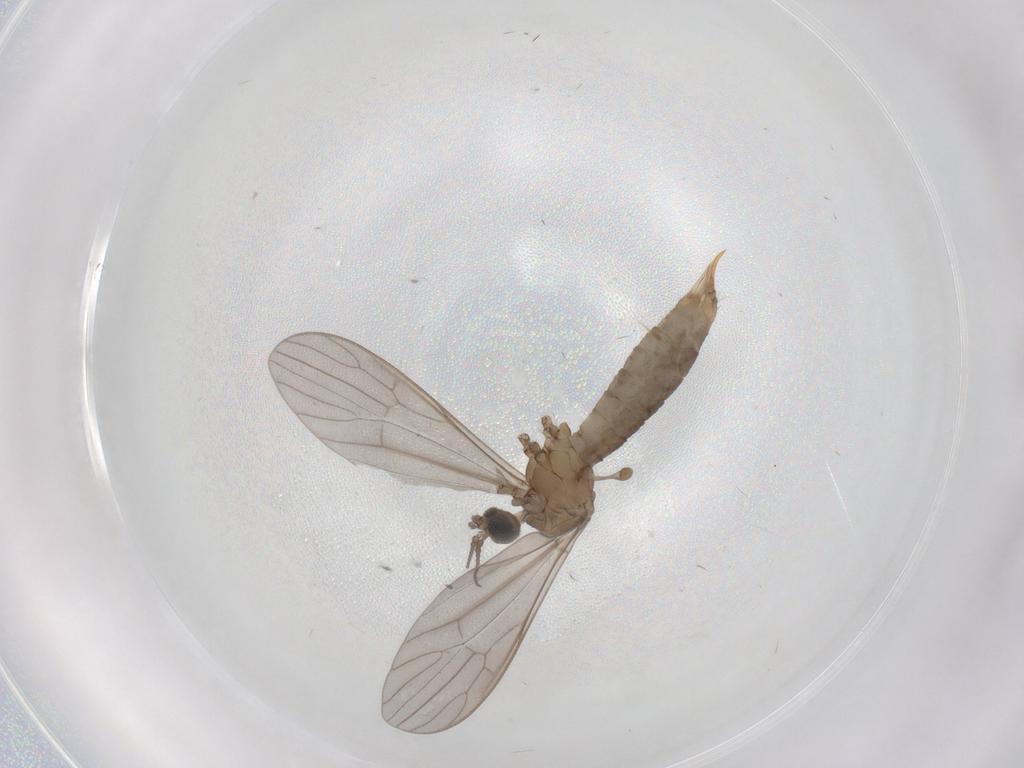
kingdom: Animalia
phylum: Arthropoda
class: Insecta
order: Diptera
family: Limoniidae
